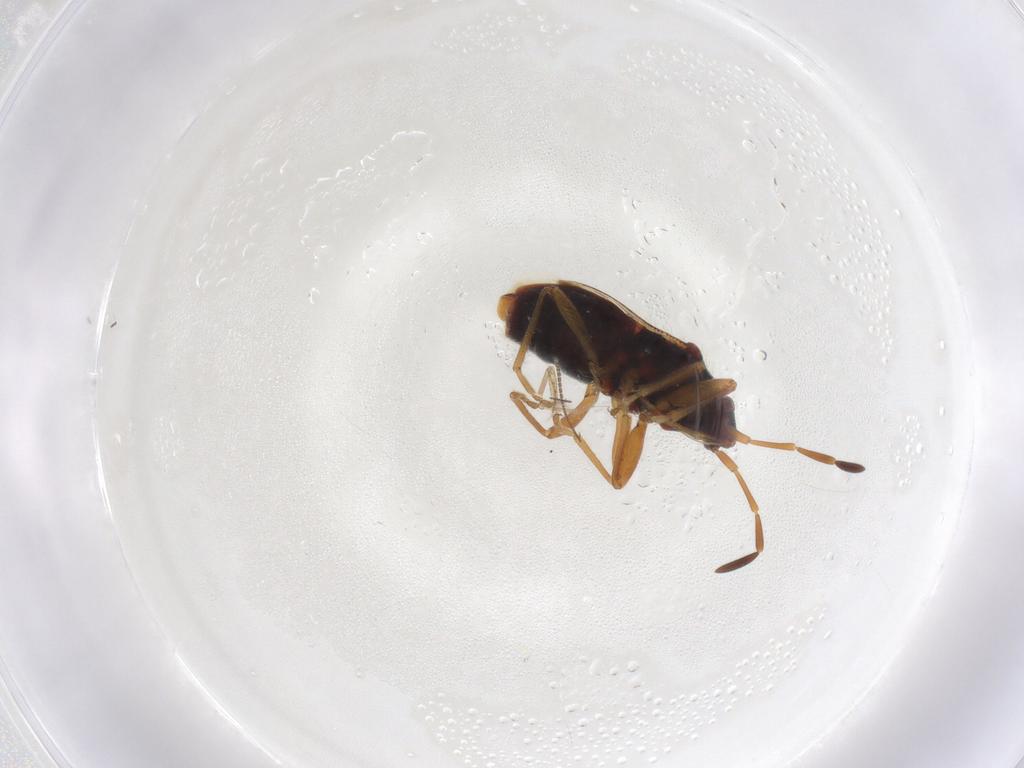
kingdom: Animalia
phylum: Arthropoda
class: Insecta
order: Hemiptera
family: Rhyparochromidae
